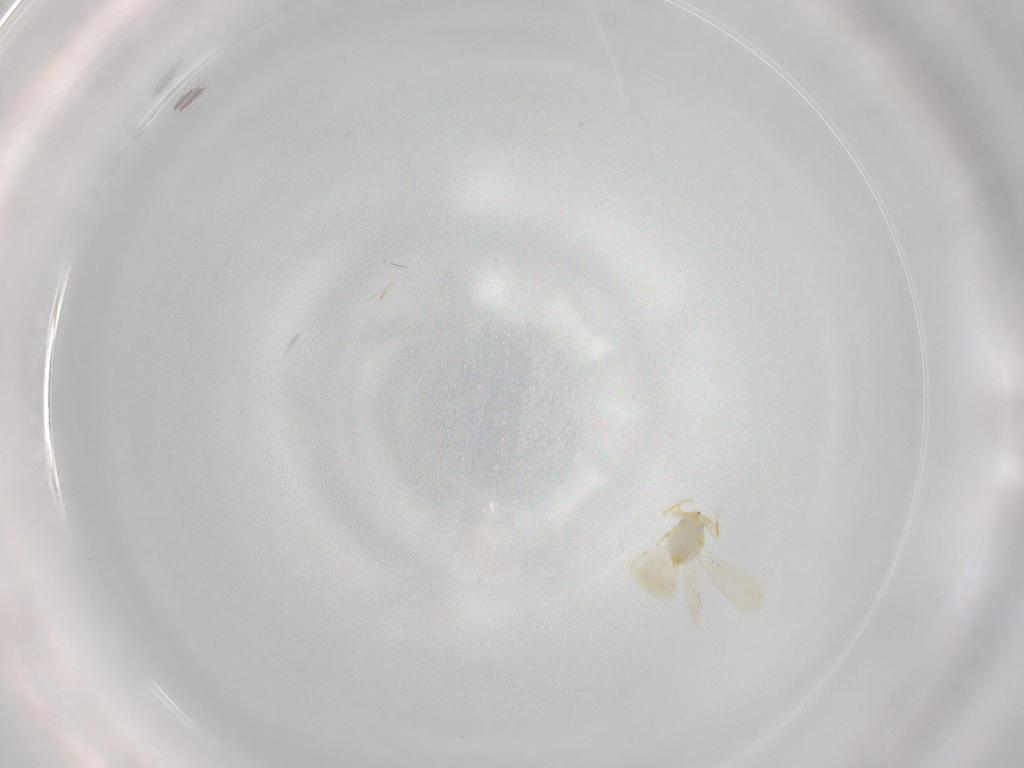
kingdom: Animalia
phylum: Arthropoda
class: Insecta
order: Hemiptera
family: Aleyrodidae
